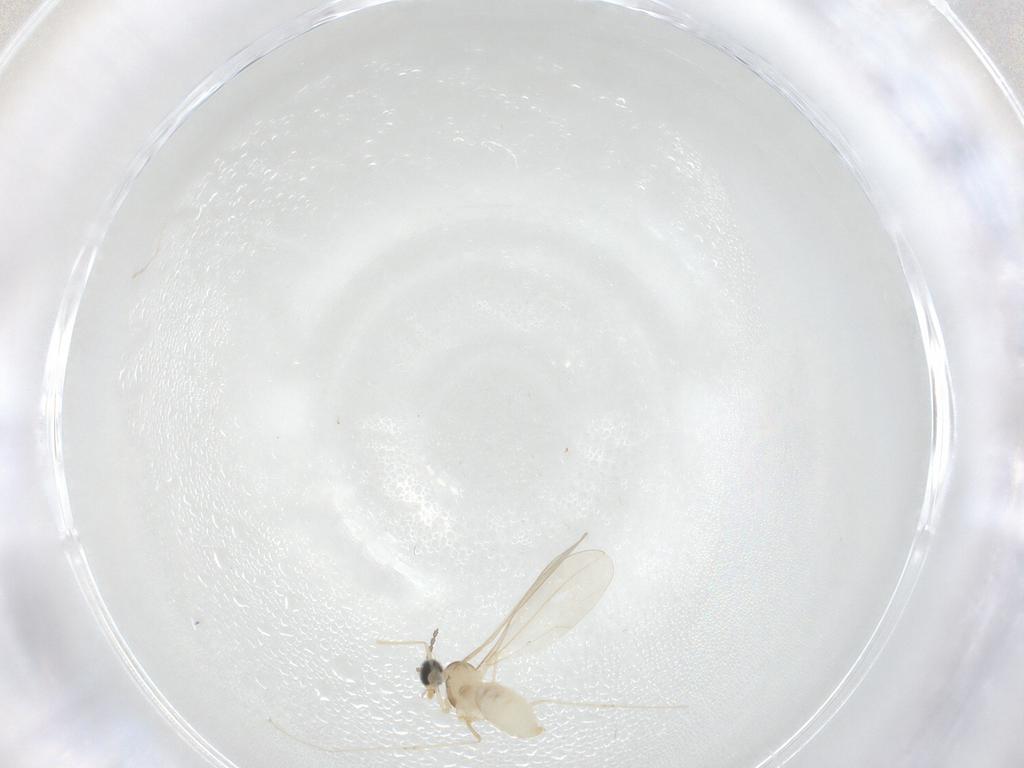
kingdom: Animalia
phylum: Arthropoda
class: Insecta
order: Diptera
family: Cecidomyiidae
